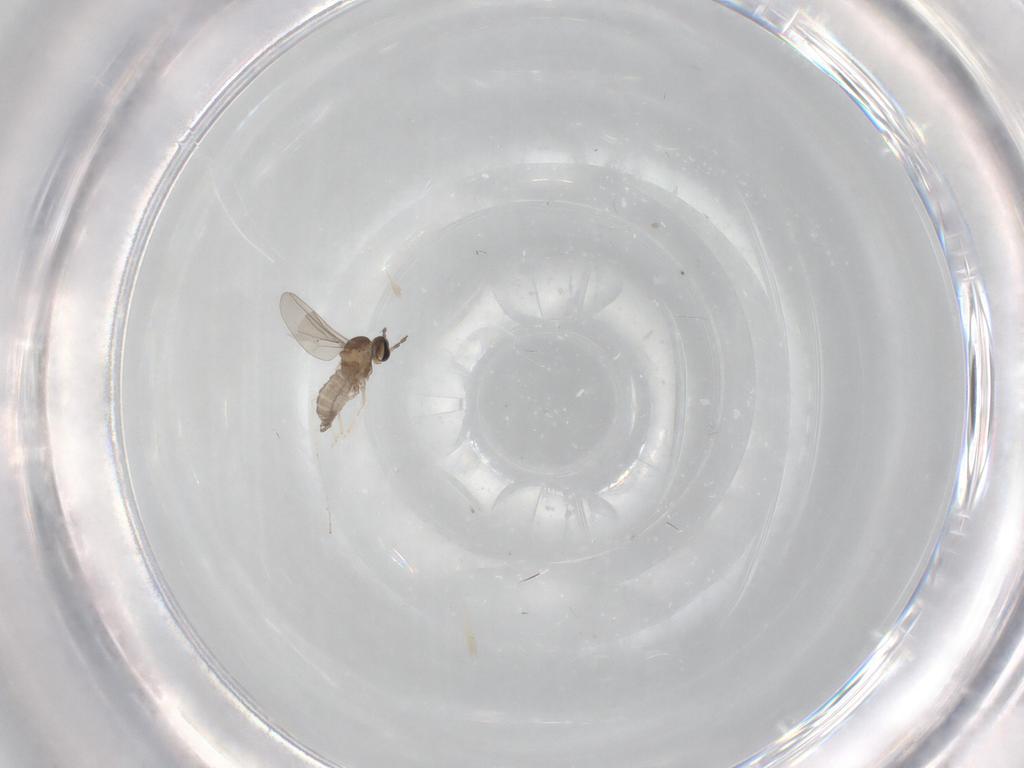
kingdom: Animalia
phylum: Arthropoda
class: Insecta
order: Diptera
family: Cecidomyiidae
